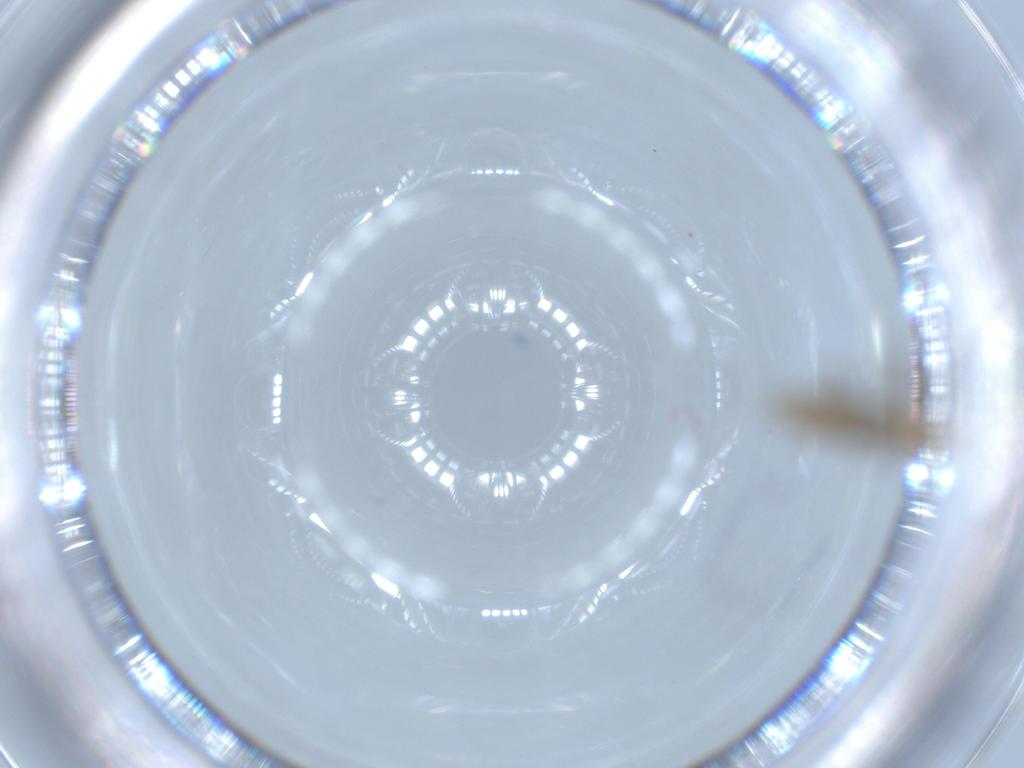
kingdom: Animalia
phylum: Arthropoda
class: Insecta
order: Diptera
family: Chironomidae
